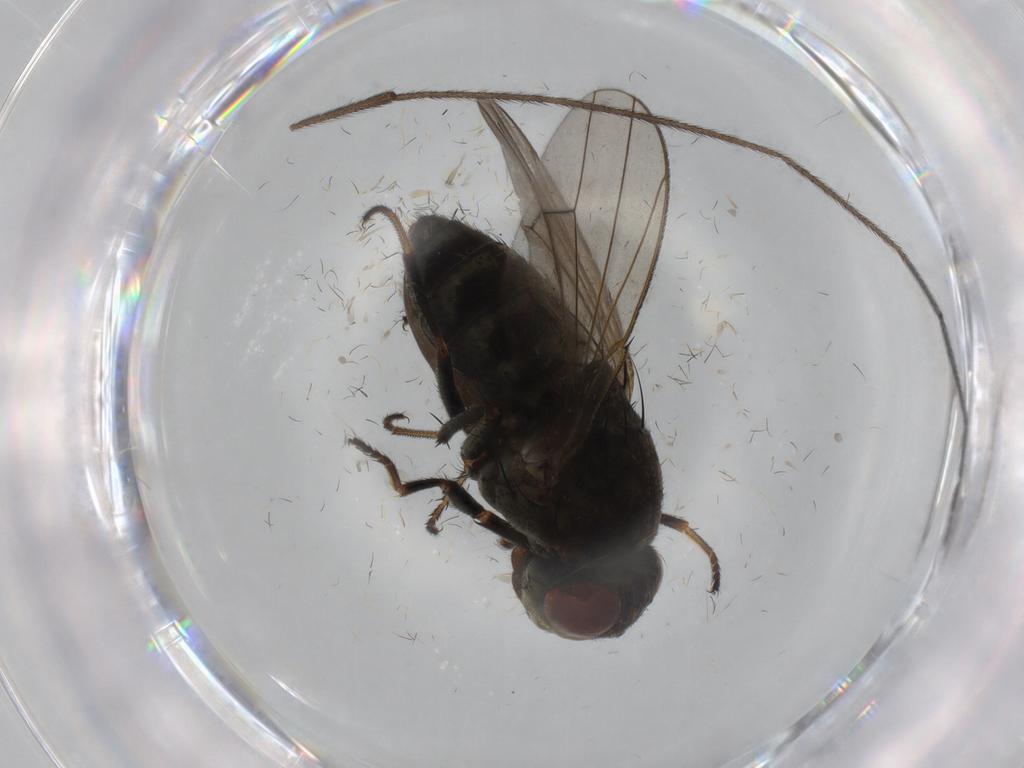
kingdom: Animalia
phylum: Arthropoda
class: Insecta
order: Diptera
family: Ephydridae
